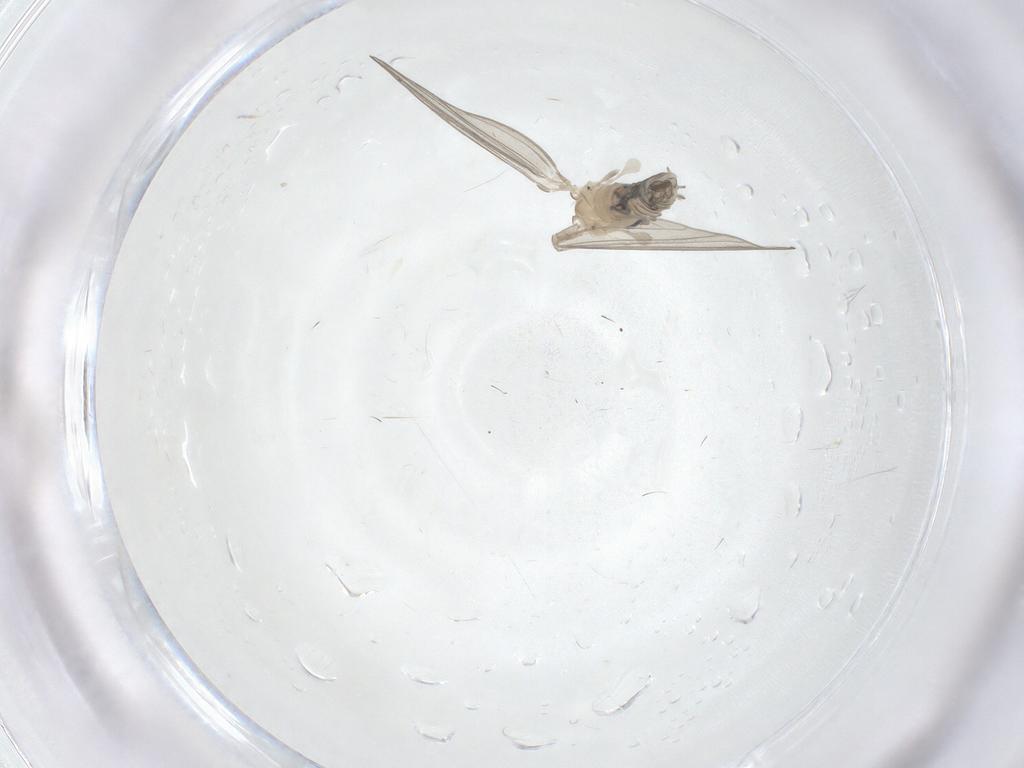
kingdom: Animalia
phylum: Arthropoda
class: Insecta
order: Diptera
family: Psychodidae
